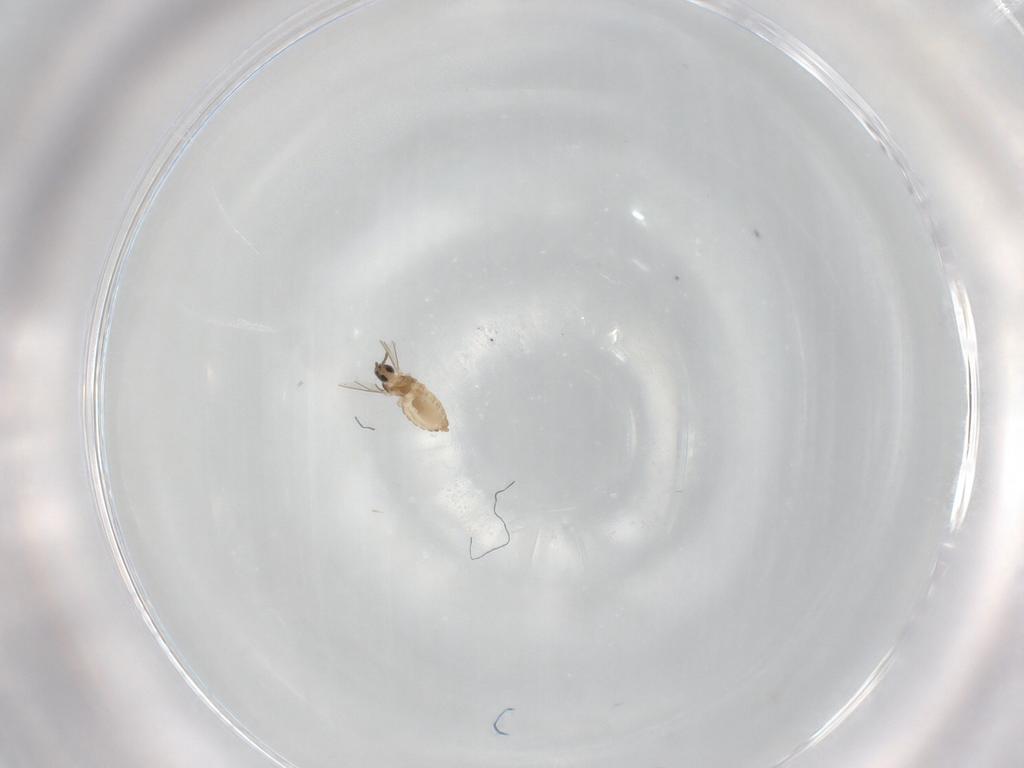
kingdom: Animalia
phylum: Arthropoda
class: Insecta
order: Diptera
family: Cecidomyiidae
